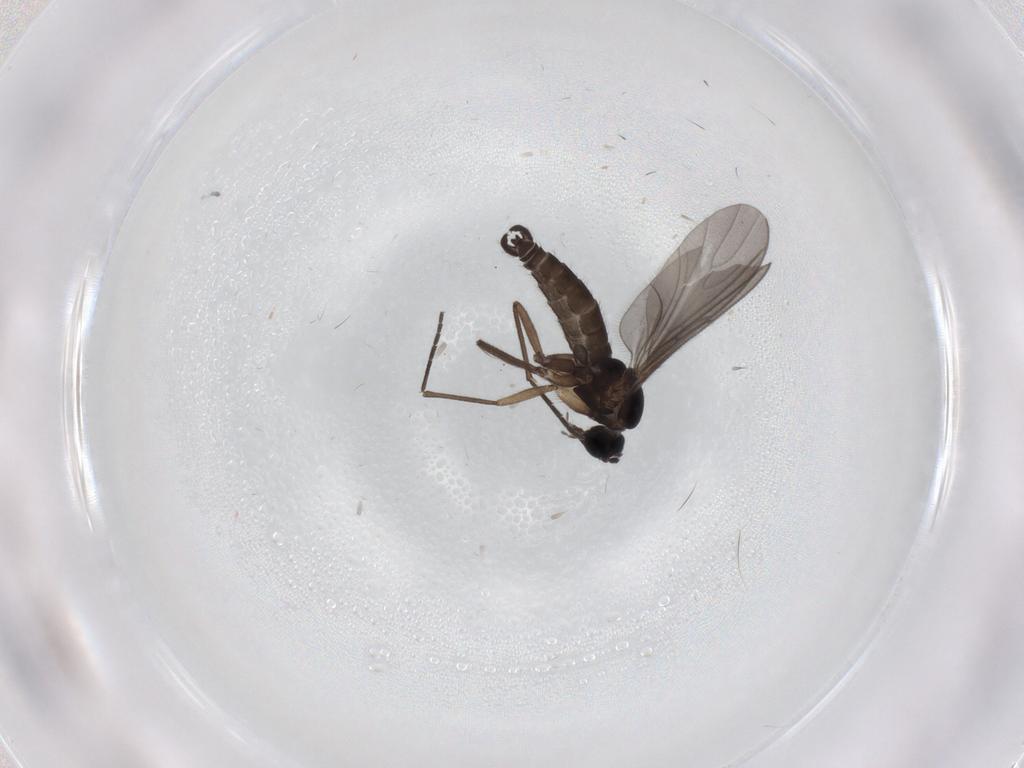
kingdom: Animalia
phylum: Arthropoda
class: Insecta
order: Diptera
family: Sciaridae
